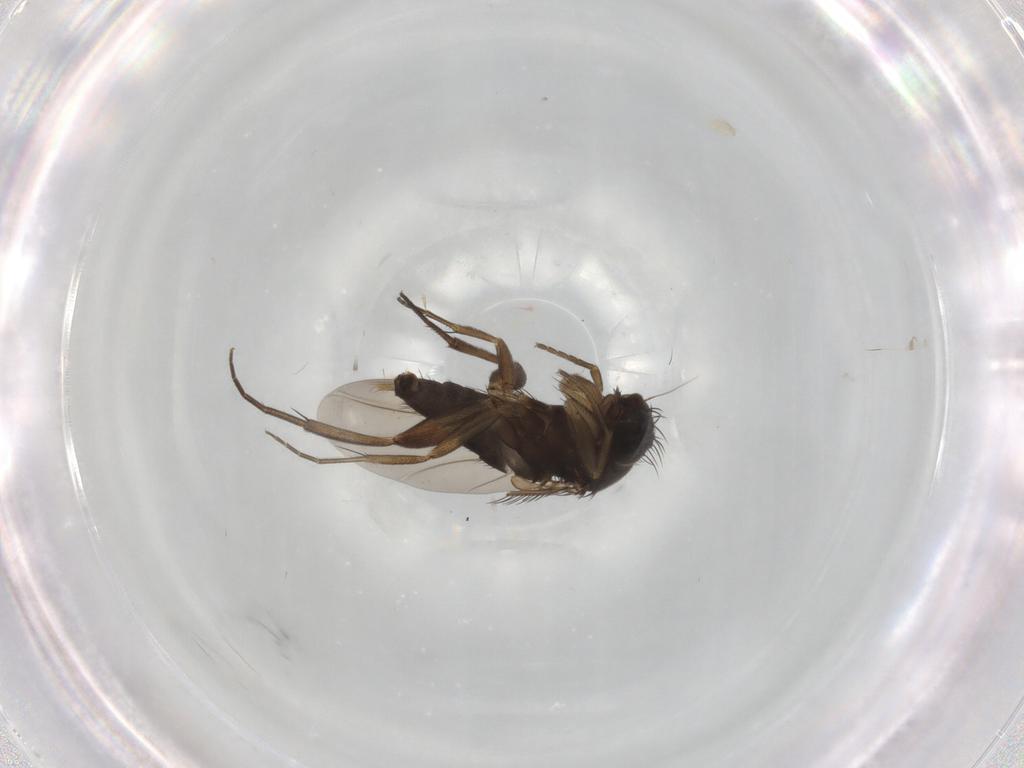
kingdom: Animalia
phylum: Arthropoda
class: Insecta
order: Diptera
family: Phoridae
